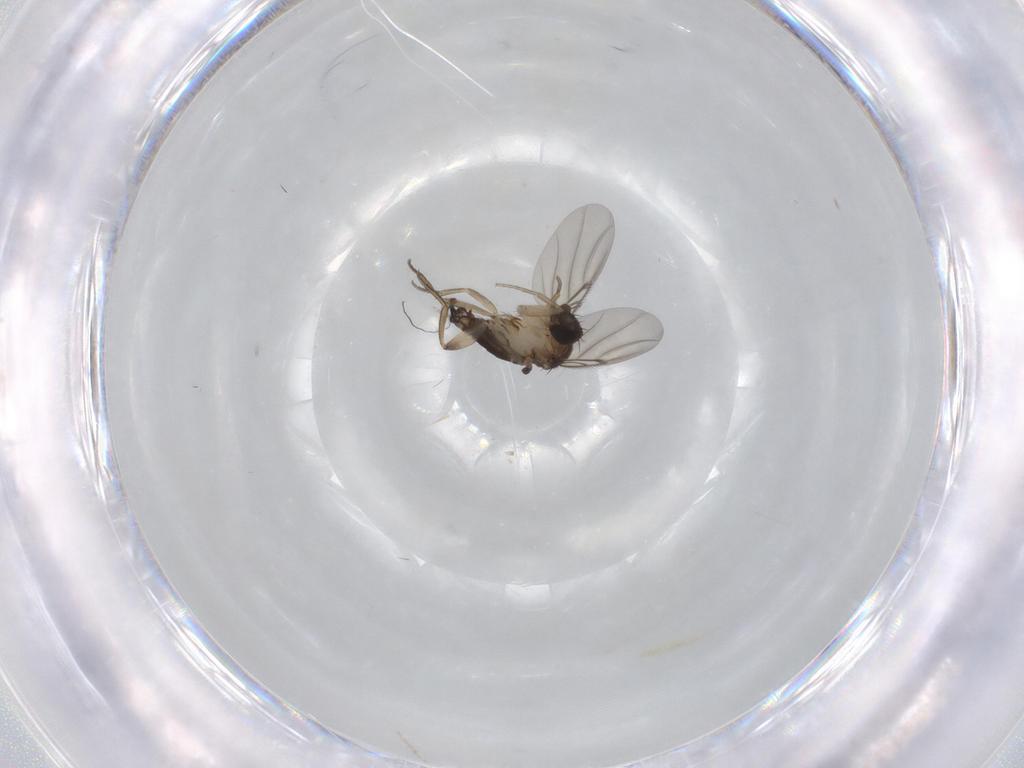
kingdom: Animalia
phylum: Arthropoda
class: Insecta
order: Diptera
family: Phoridae
